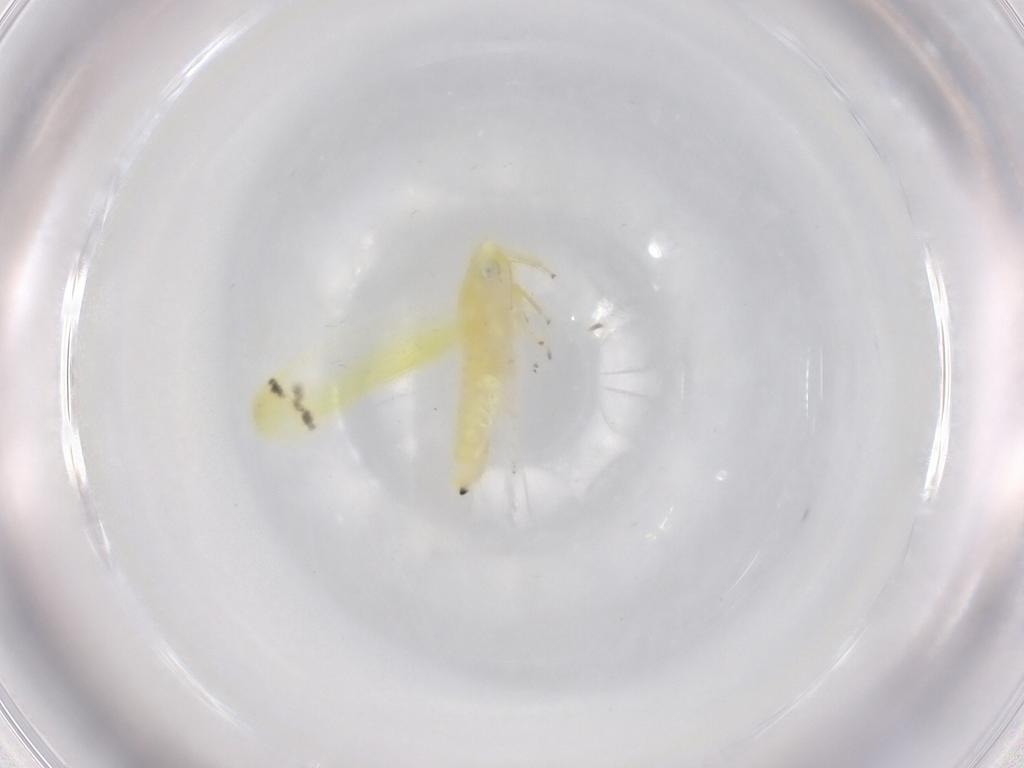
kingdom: Animalia
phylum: Arthropoda
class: Insecta
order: Hemiptera
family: Cicadellidae
